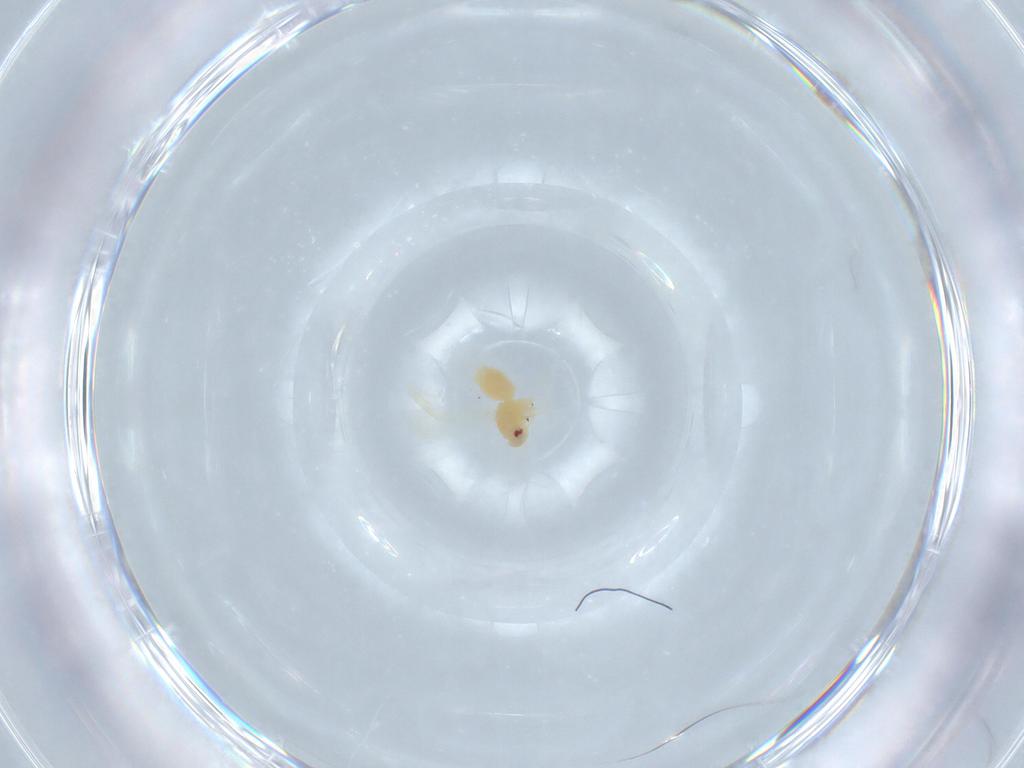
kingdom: Animalia
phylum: Arthropoda
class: Insecta
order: Hemiptera
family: Aleyrodidae
